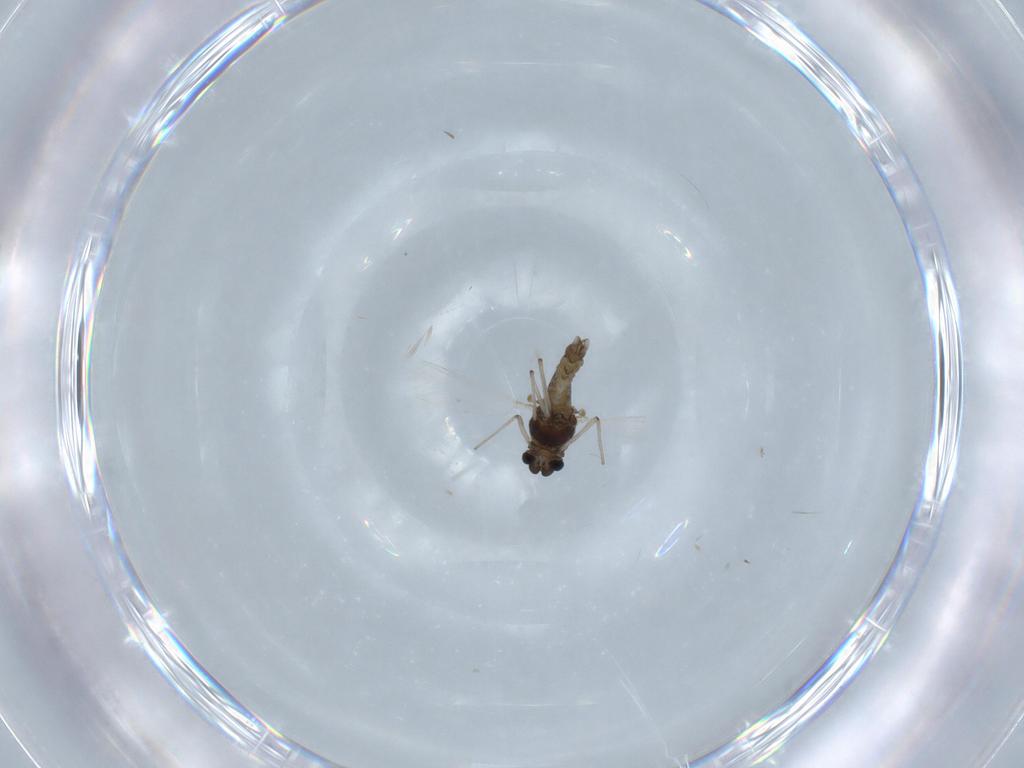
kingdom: Animalia
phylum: Arthropoda
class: Insecta
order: Diptera
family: Chironomidae
